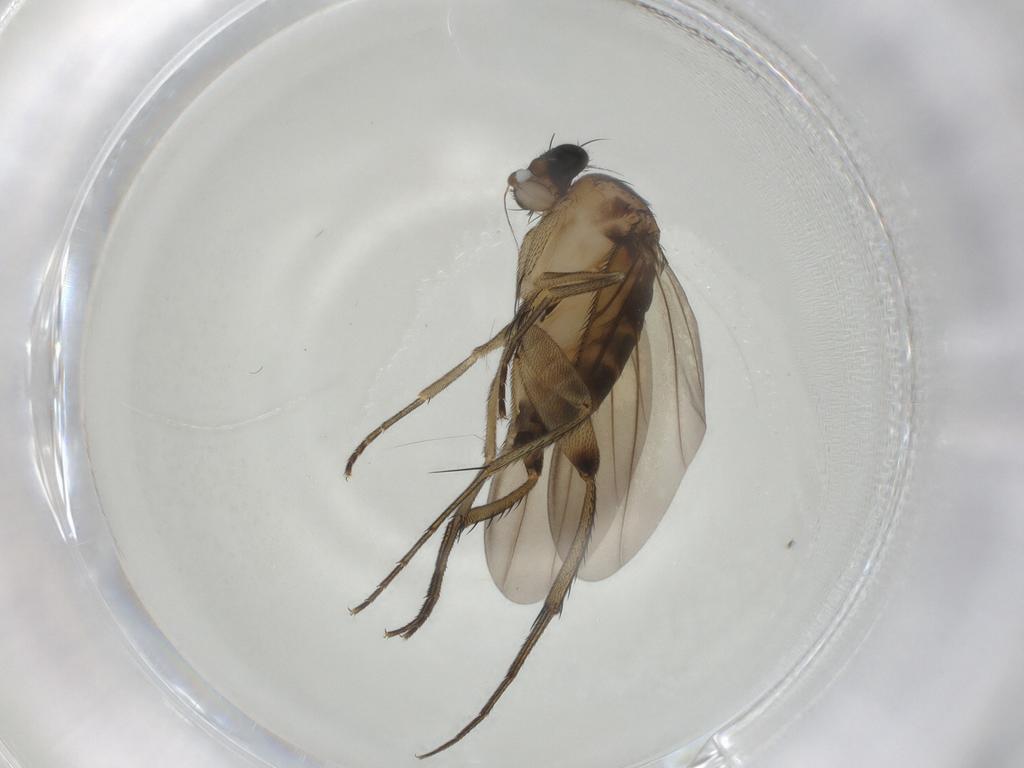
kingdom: Animalia
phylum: Arthropoda
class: Insecta
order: Diptera
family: Phoridae
